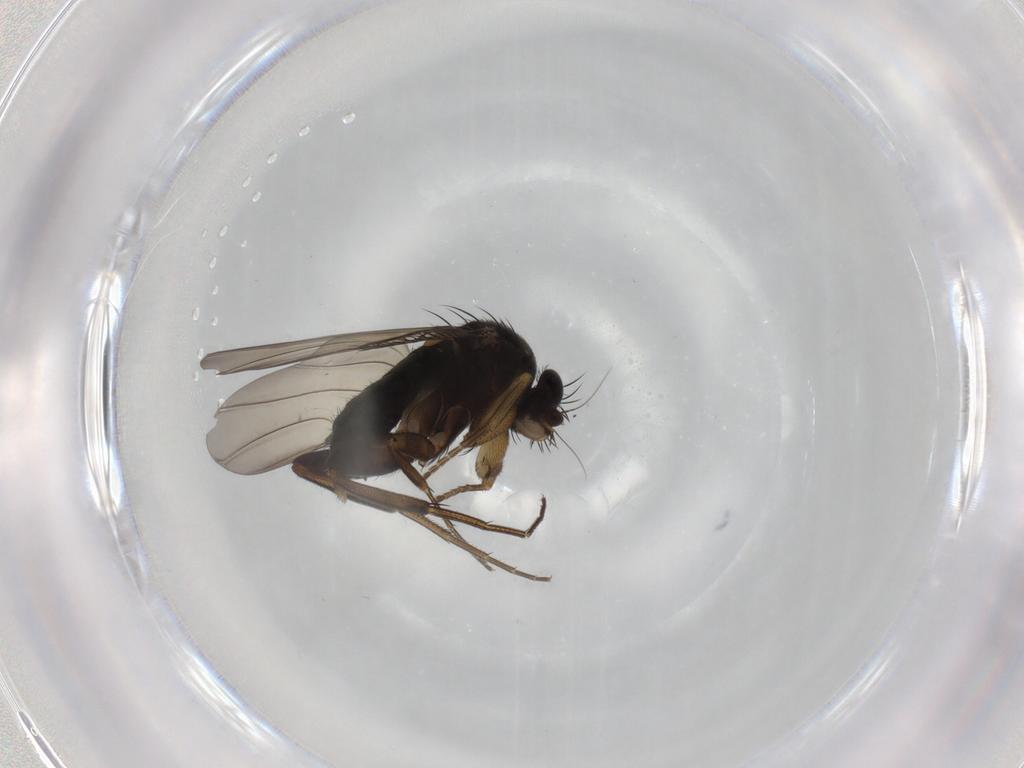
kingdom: Animalia
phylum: Arthropoda
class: Insecta
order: Diptera
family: Phoridae
